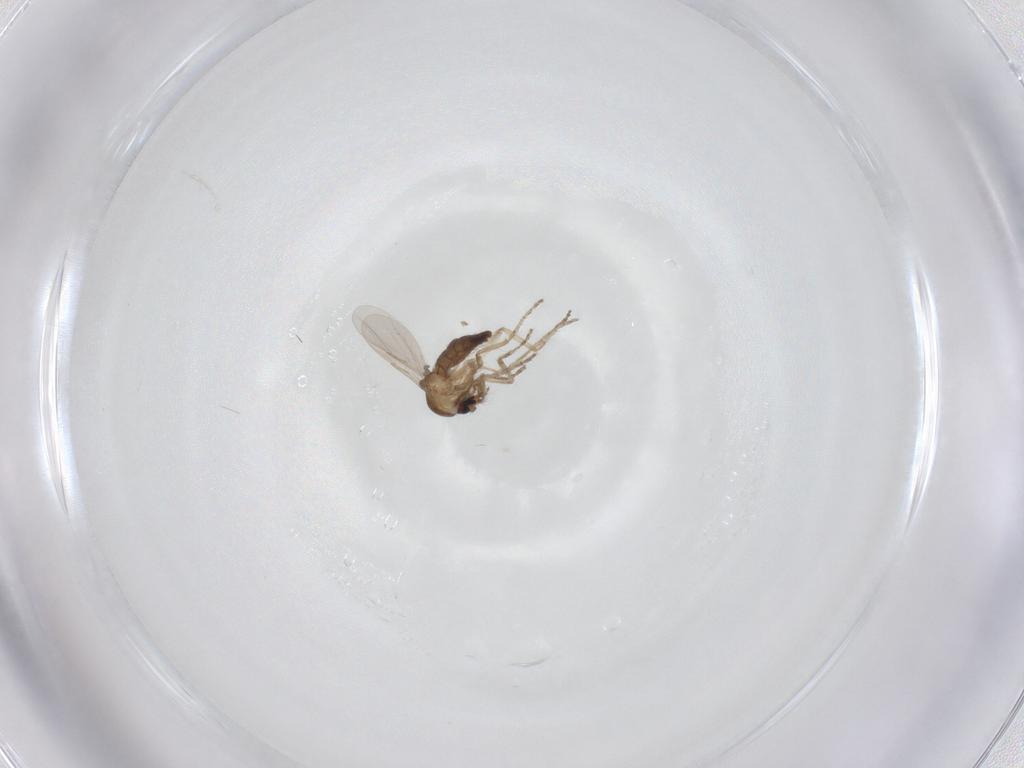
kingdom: Animalia
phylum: Arthropoda
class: Insecta
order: Diptera
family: Ceratopogonidae
